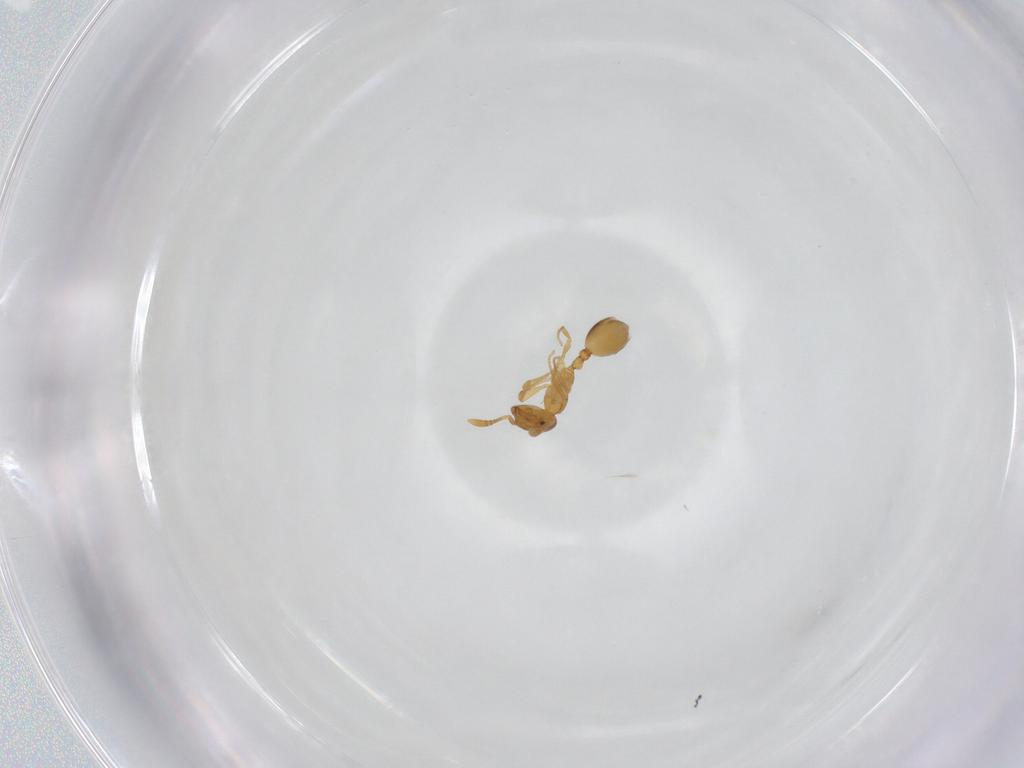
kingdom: Animalia
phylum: Arthropoda
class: Insecta
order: Hymenoptera
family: Formicidae
